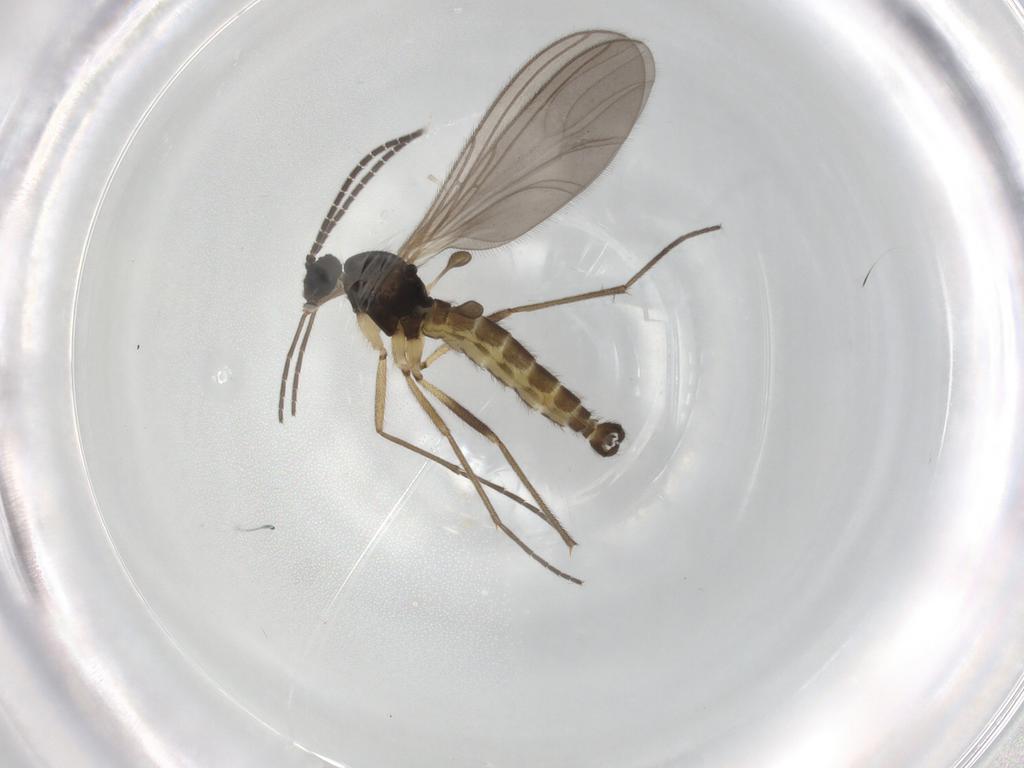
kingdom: Animalia
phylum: Arthropoda
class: Insecta
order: Diptera
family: Sciaridae
